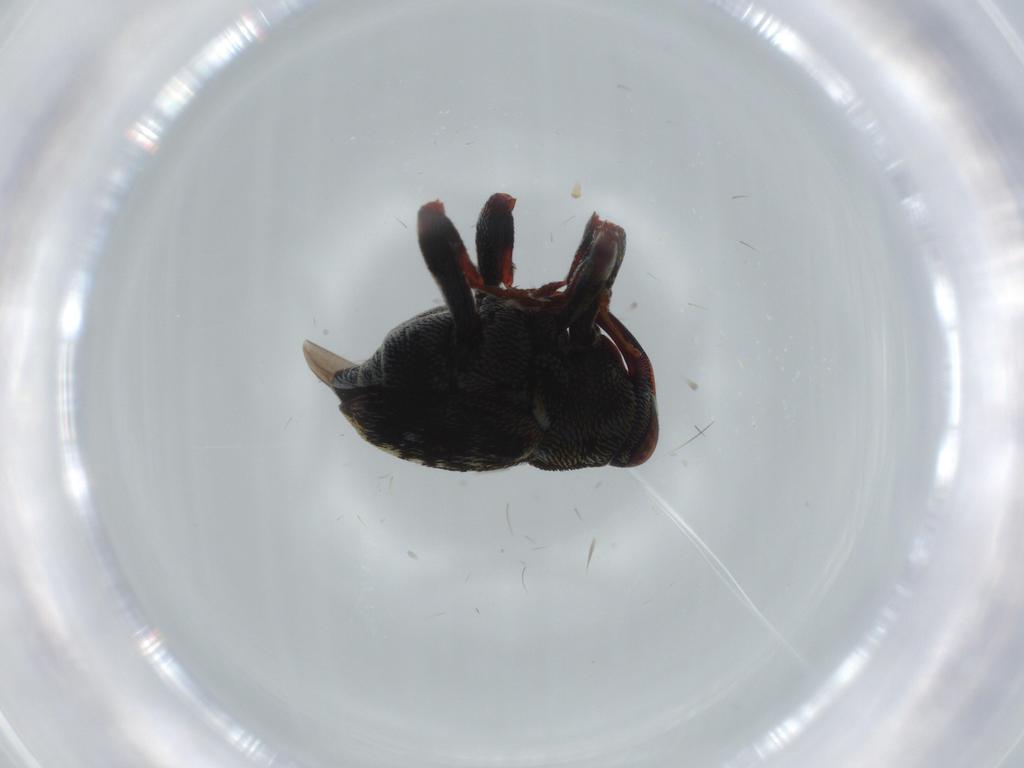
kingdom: Animalia
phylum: Arthropoda
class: Insecta
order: Coleoptera
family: Curculionidae
